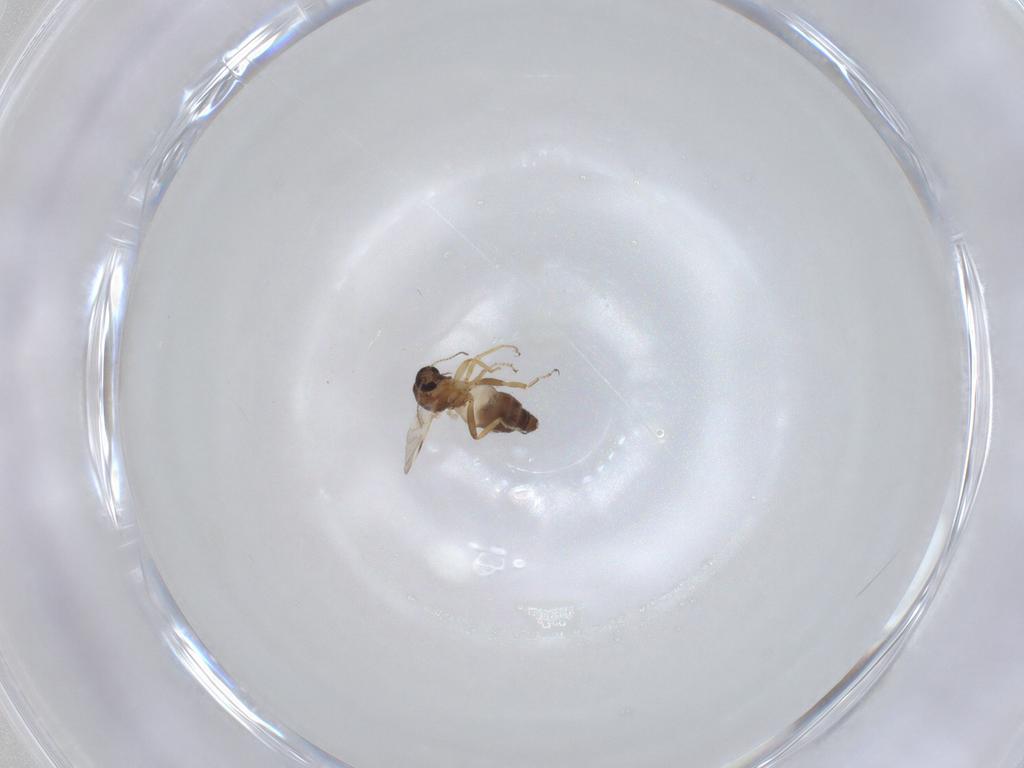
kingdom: Animalia
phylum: Arthropoda
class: Insecta
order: Diptera
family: Ceratopogonidae
